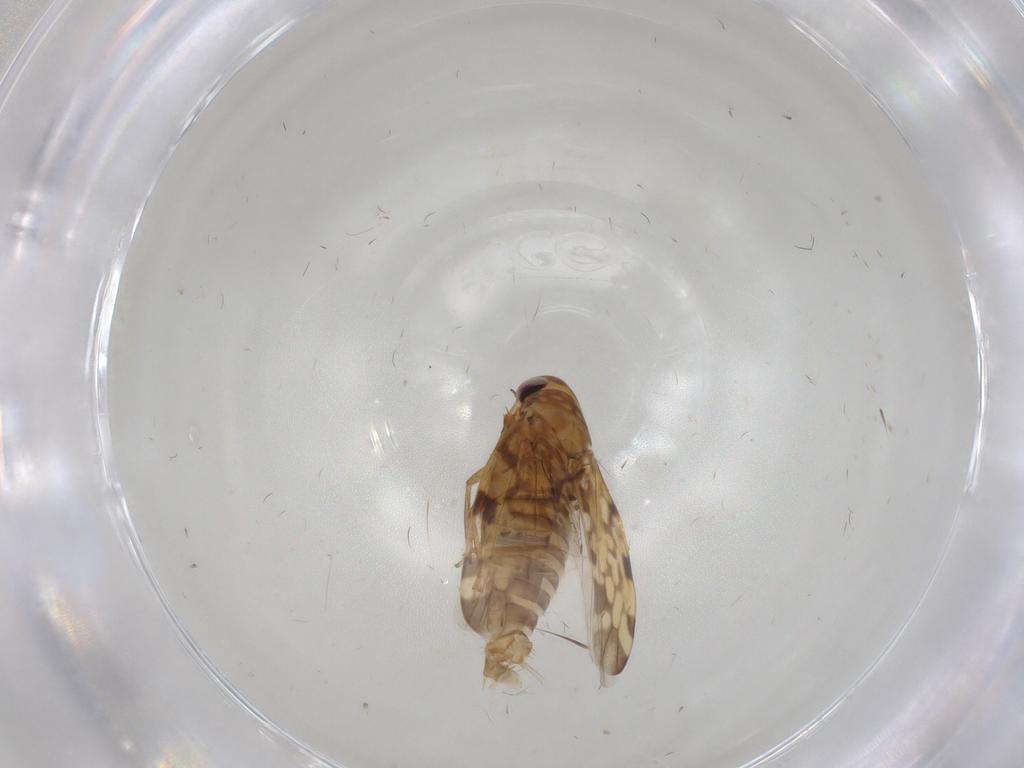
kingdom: Animalia
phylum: Arthropoda
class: Insecta
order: Hemiptera
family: Cicadellidae
